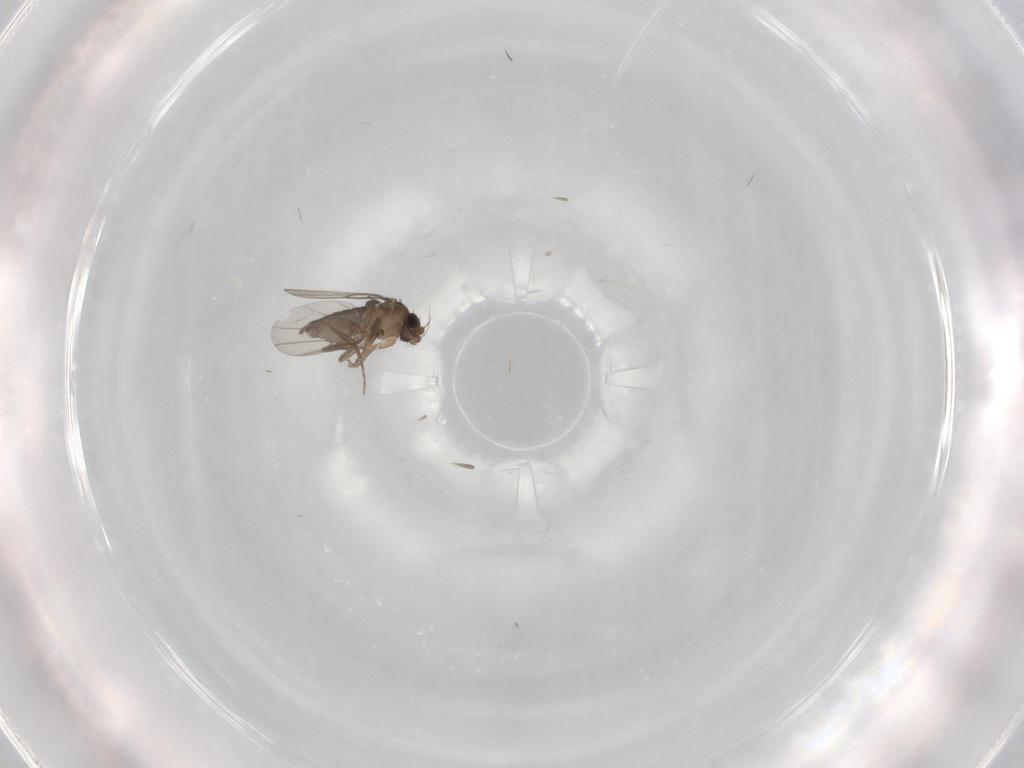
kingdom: Animalia
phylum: Arthropoda
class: Insecta
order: Diptera
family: Phoridae
